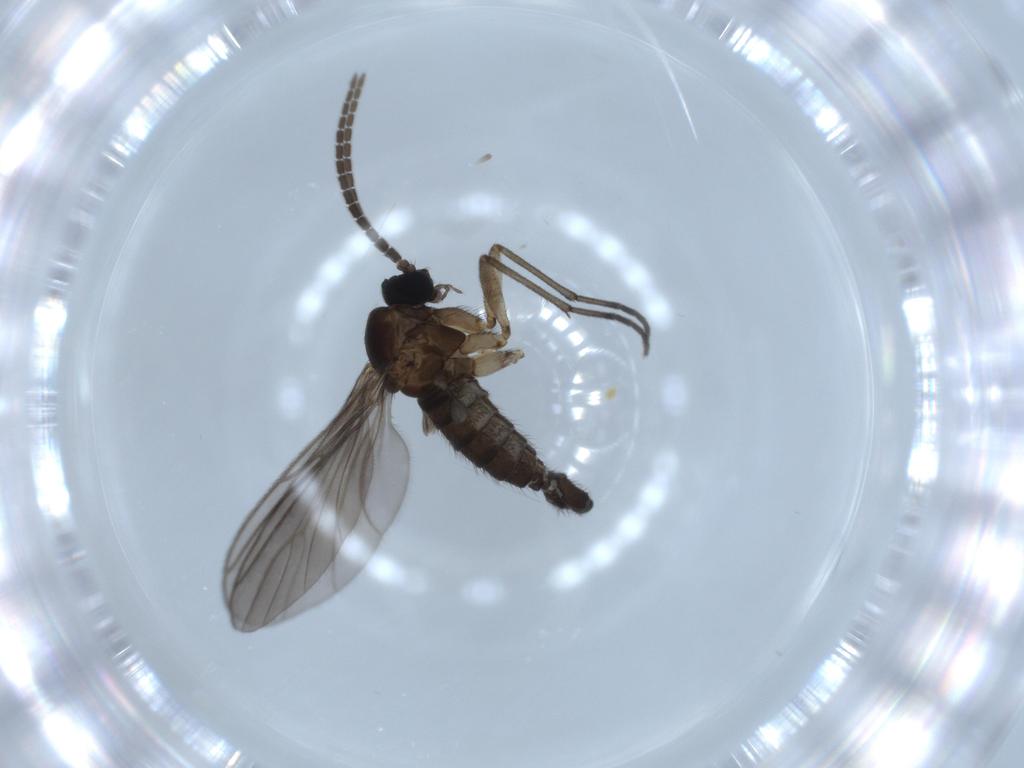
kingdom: Animalia
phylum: Arthropoda
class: Insecta
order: Diptera
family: Sciaridae
